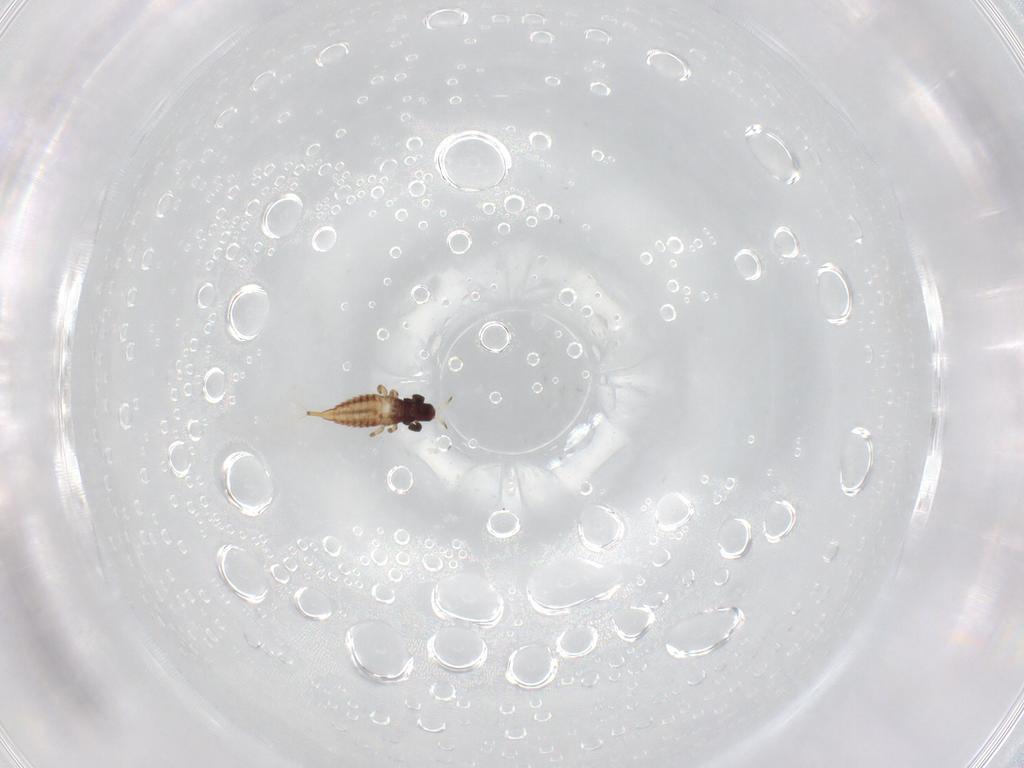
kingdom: Animalia
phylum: Arthropoda
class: Insecta
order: Thysanoptera
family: Phlaeothripidae
